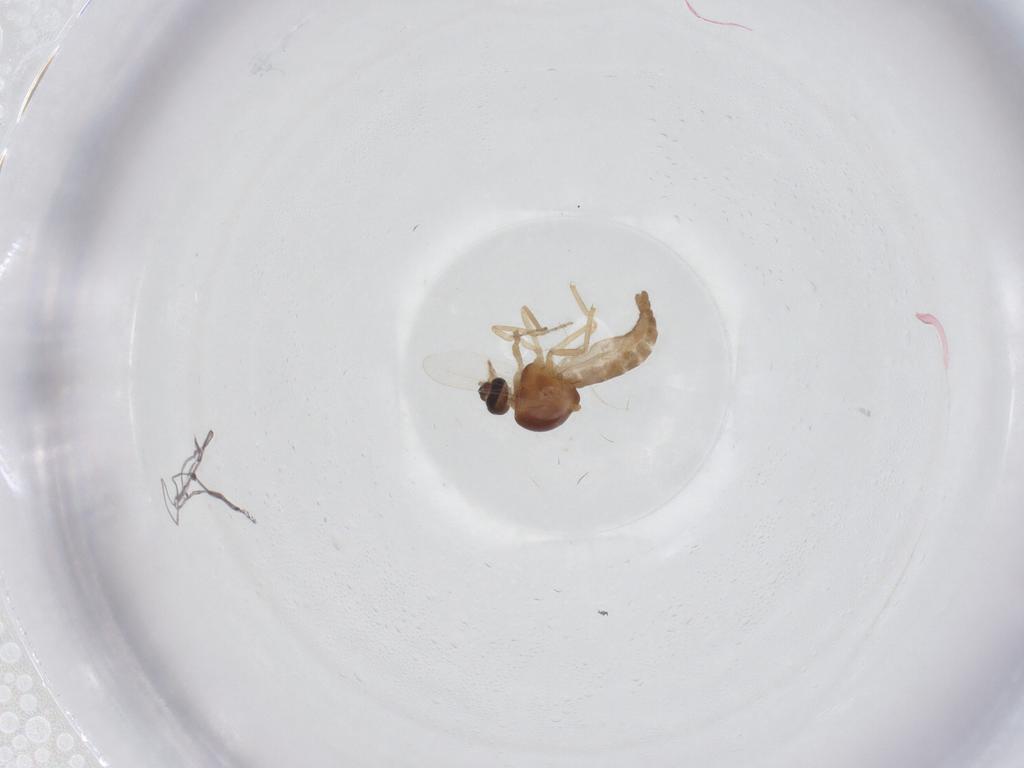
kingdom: Animalia
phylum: Arthropoda
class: Insecta
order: Diptera
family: Ceratopogonidae
